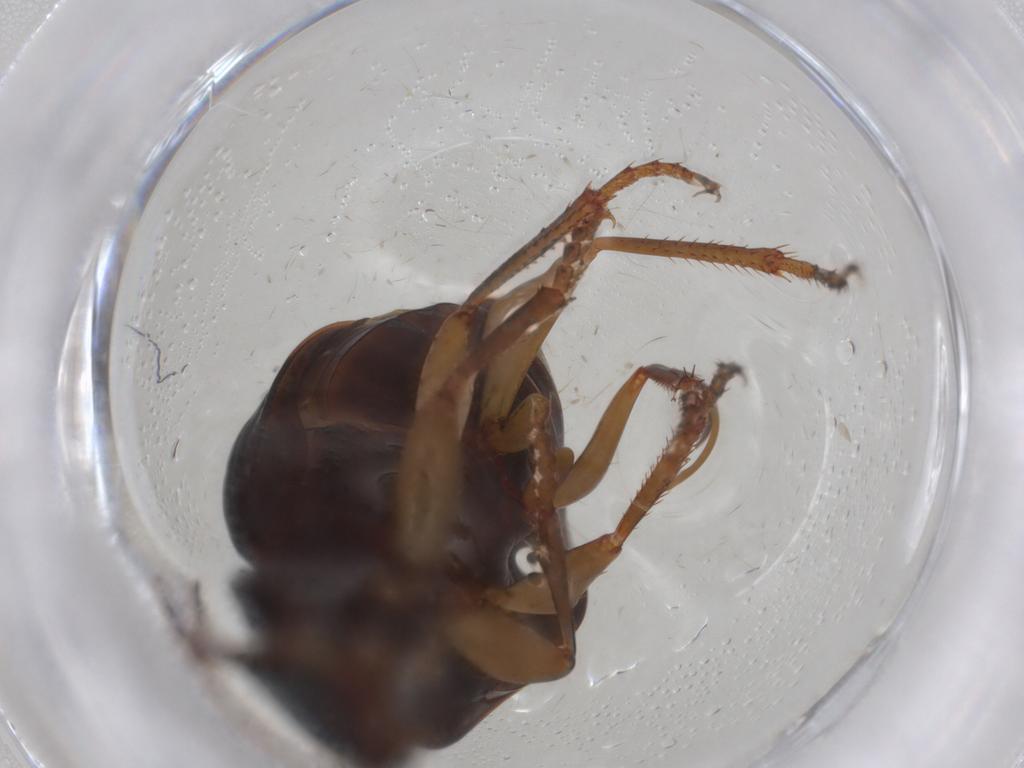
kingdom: Animalia
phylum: Arthropoda
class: Insecta
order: Coleoptera
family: Carabidae
